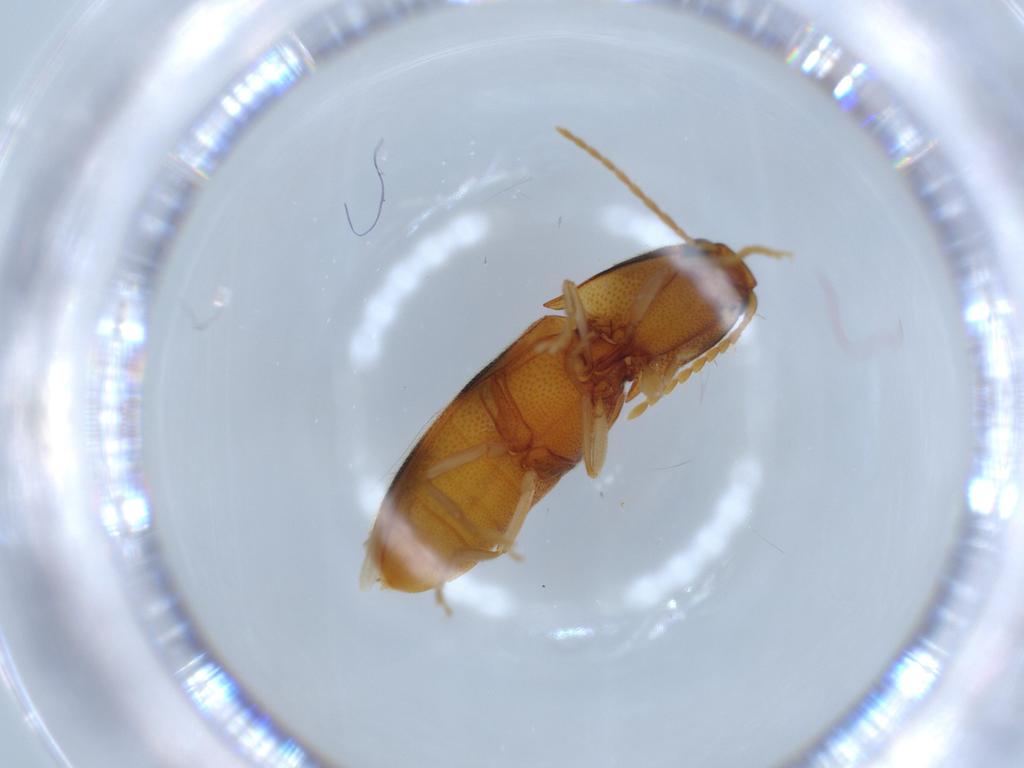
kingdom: Animalia
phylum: Arthropoda
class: Insecta
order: Coleoptera
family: Elateridae
